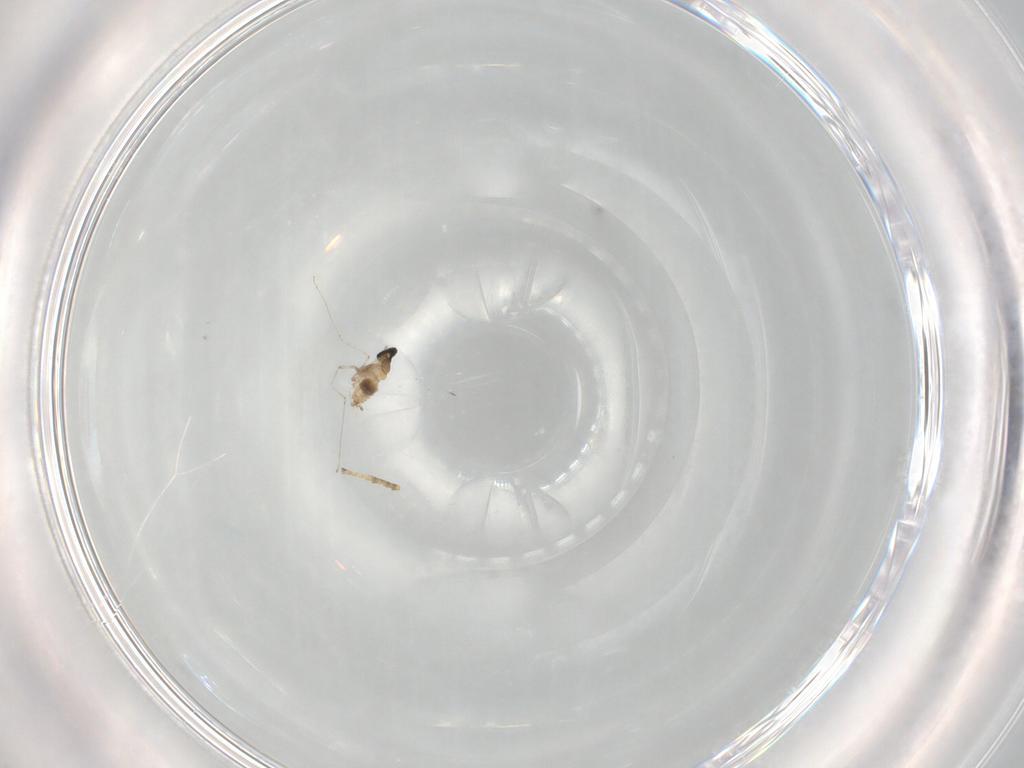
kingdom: Animalia
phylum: Arthropoda
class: Insecta
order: Diptera
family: Cecidomyiidae
